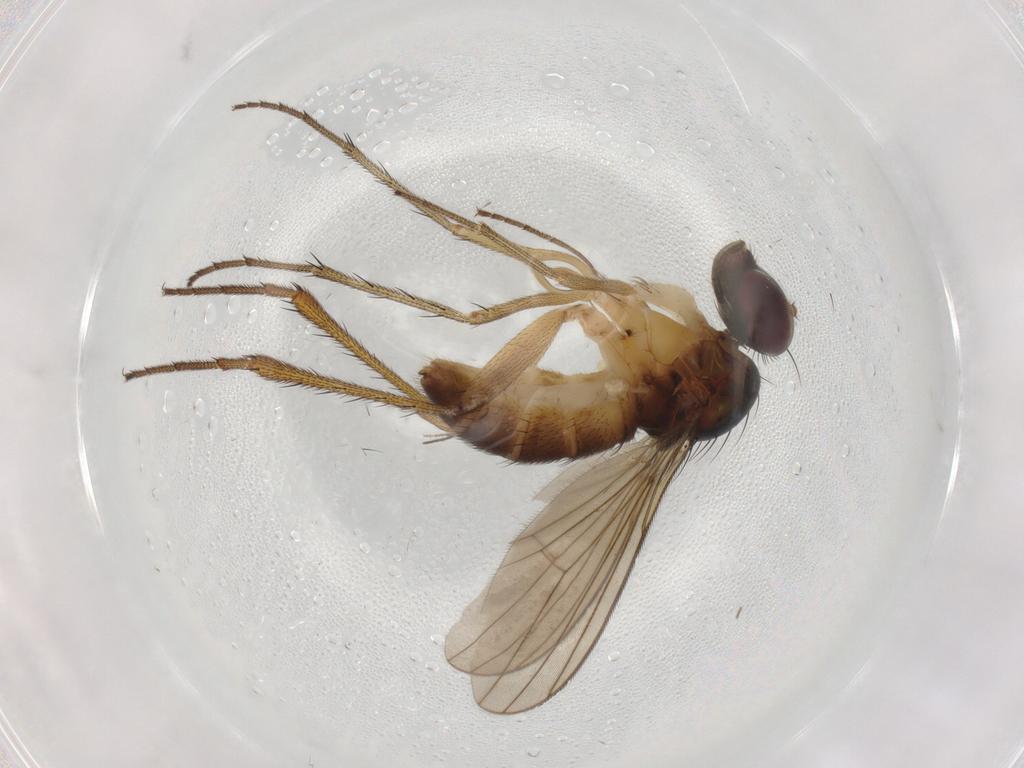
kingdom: Animalia
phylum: Arthropoda
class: Insecta
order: Diptera
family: Dolichopodidae
